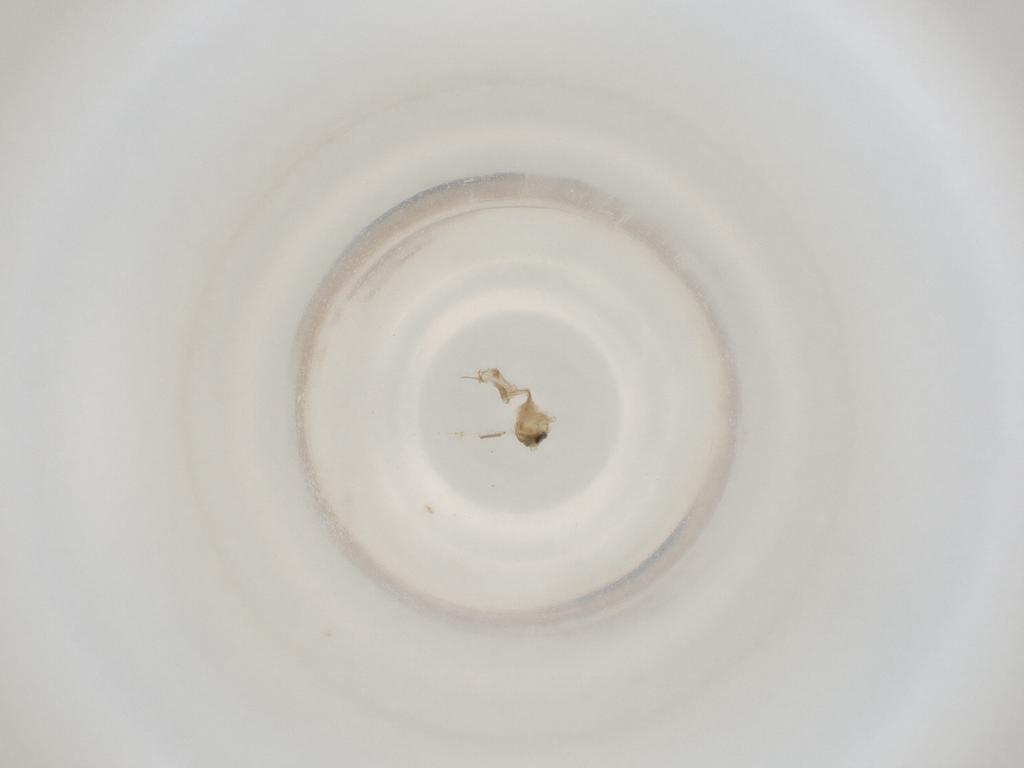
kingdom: Animalia
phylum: Arthropoda
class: Insecta
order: Diptera
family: Cecidomyiidae
